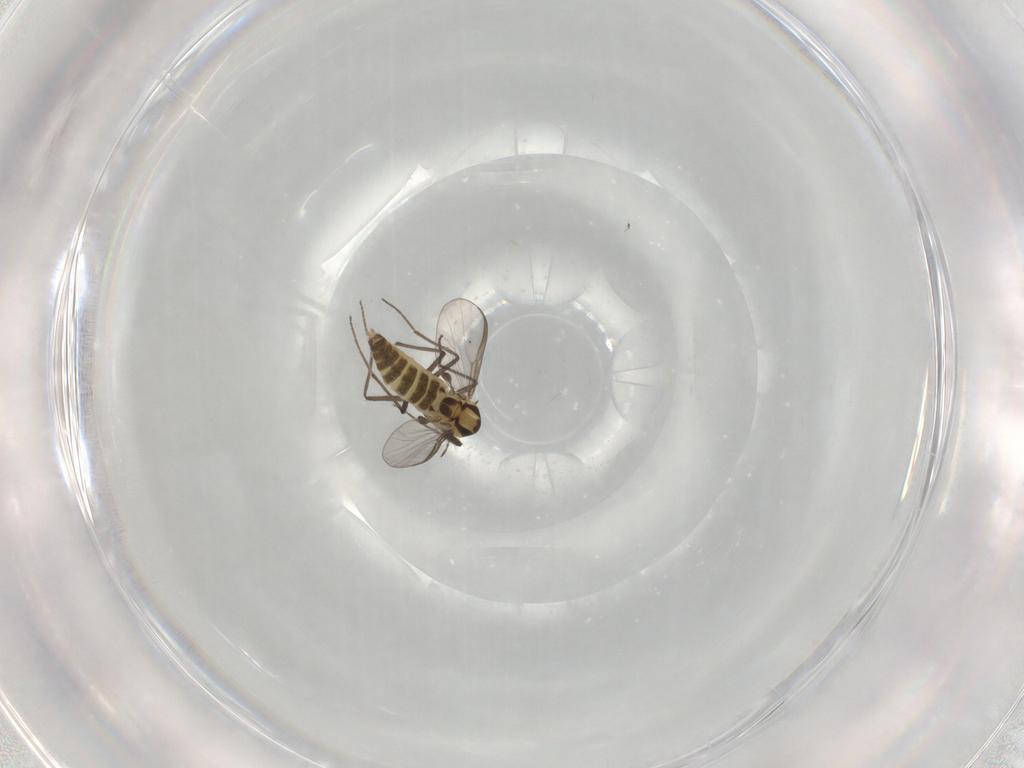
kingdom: Animalia
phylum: Arthropoda
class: Insecta
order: Diptera
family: Chironomidae
